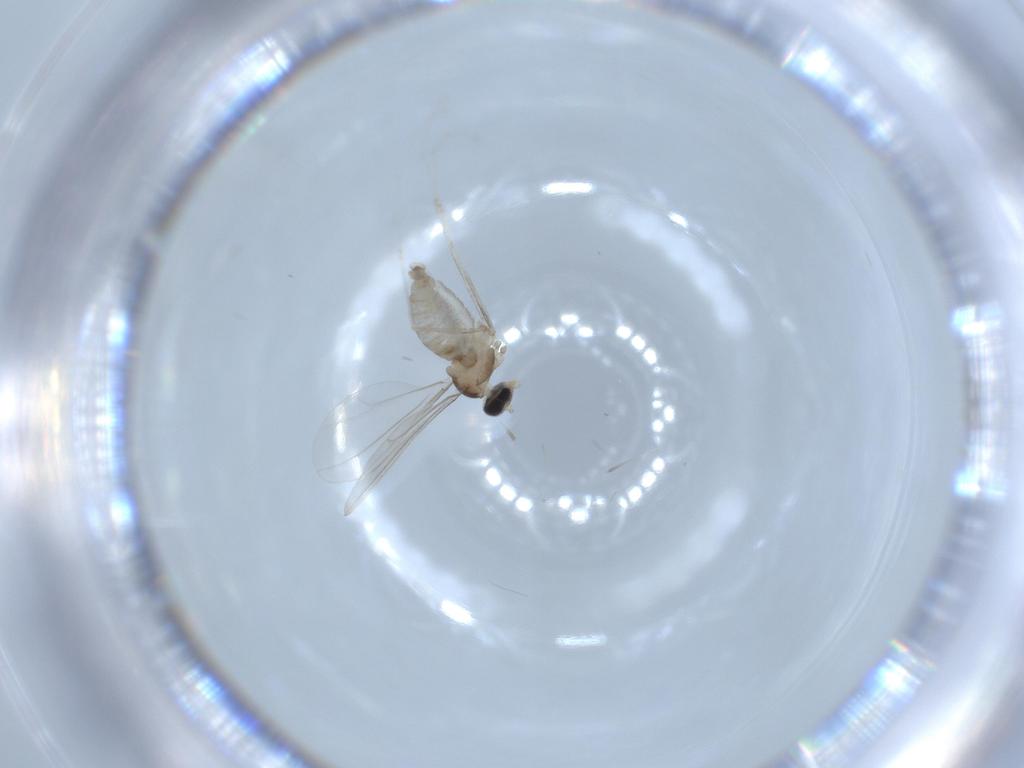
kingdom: Animalia
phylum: Arthropoda
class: Insecta
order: Diptera
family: Cecidomyiidae
